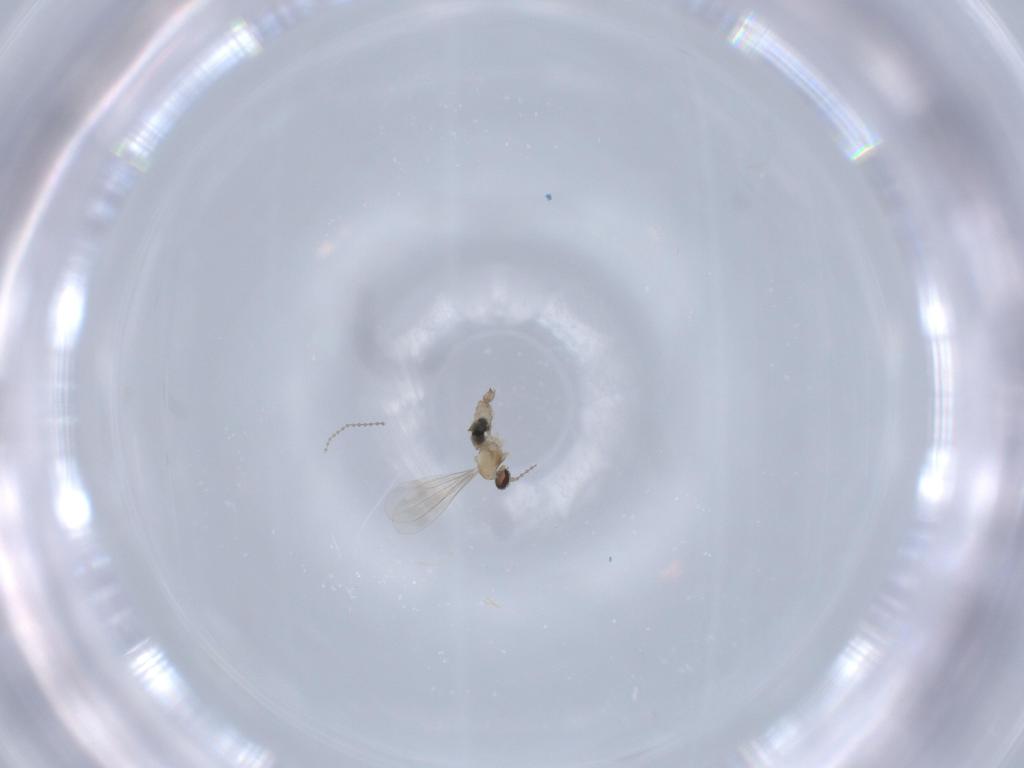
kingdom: Animalia
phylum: Arthropoda
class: Insecta
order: Diptera
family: Cecidomyiidae
